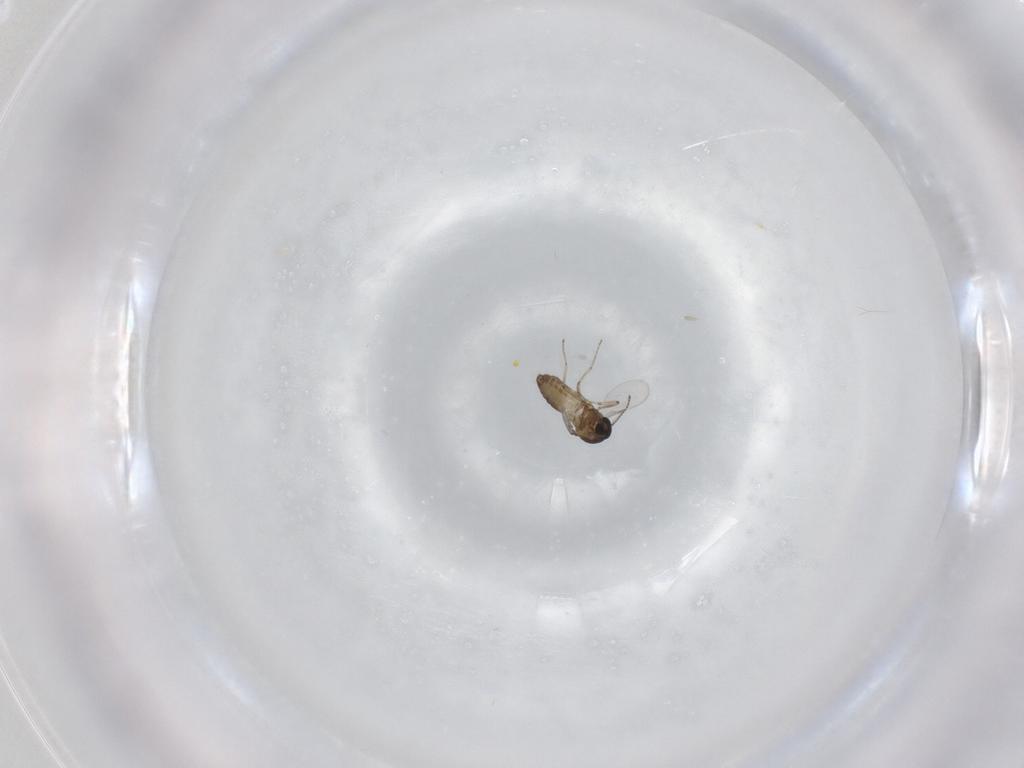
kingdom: Animalia
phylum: Arthropoda
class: Insecta
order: Diptera
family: Ceratopogonidae
